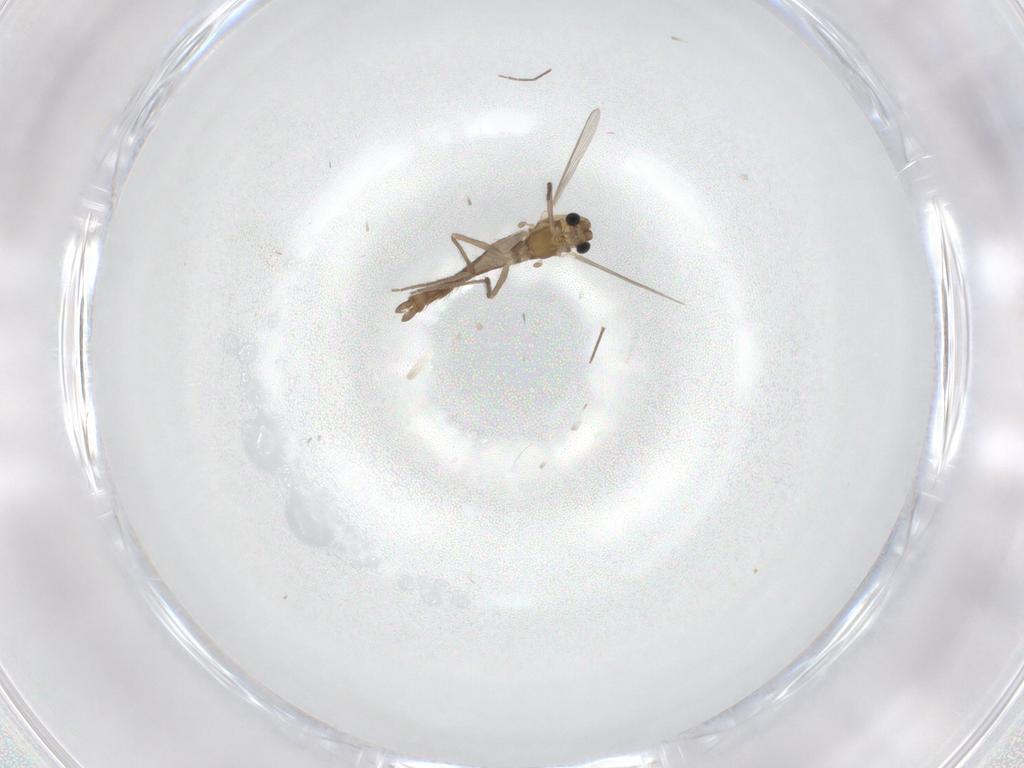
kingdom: Animalia
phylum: Arthropoda
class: Insecta
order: Diptera
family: Chironomidae
